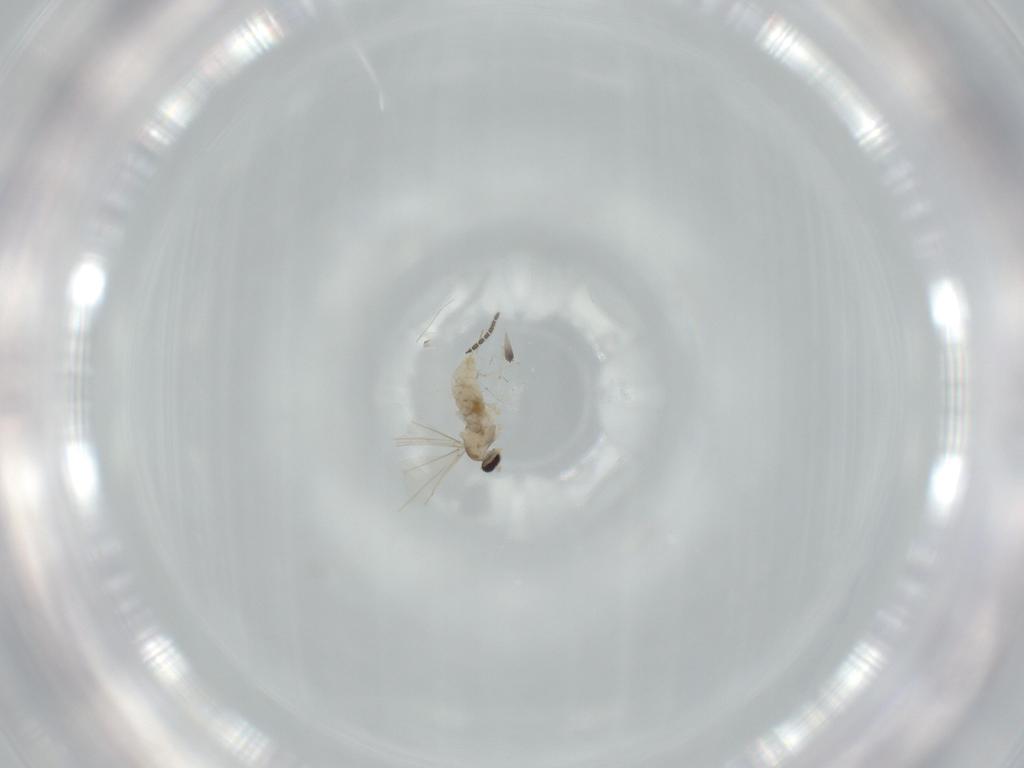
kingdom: Animalia
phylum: Arthropoda
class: Insecta
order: Diptera
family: Cecidomyiidae
